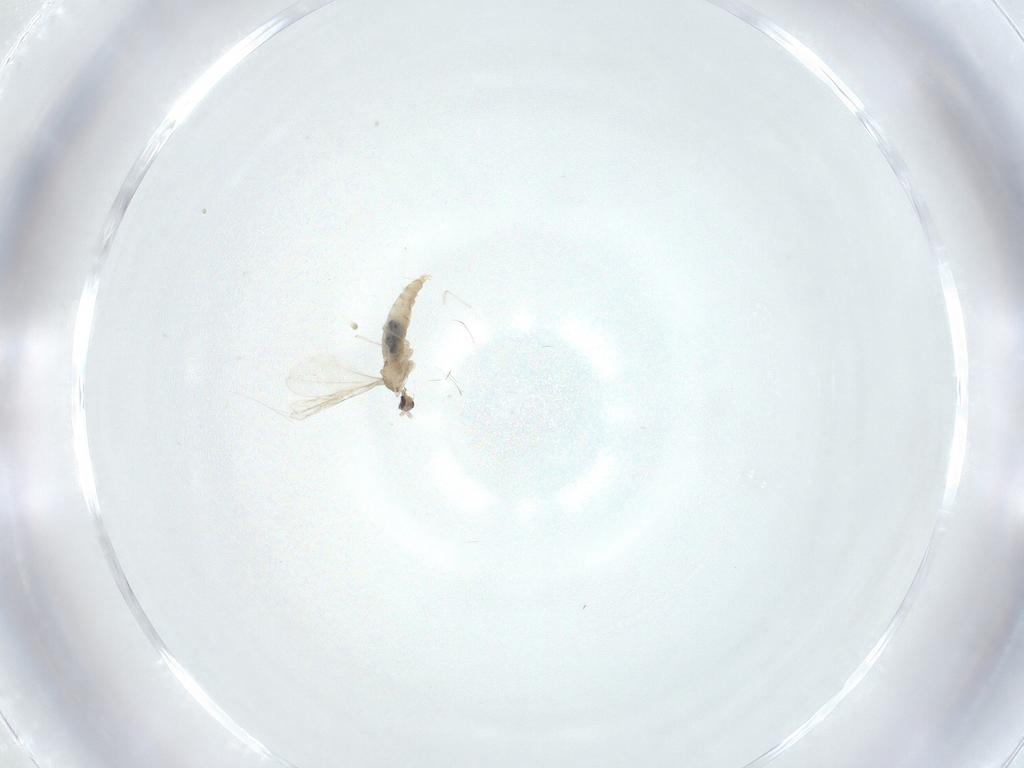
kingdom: Animalia
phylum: Arthropoda
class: Insecta
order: Diptera
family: Cecidomyiidae
